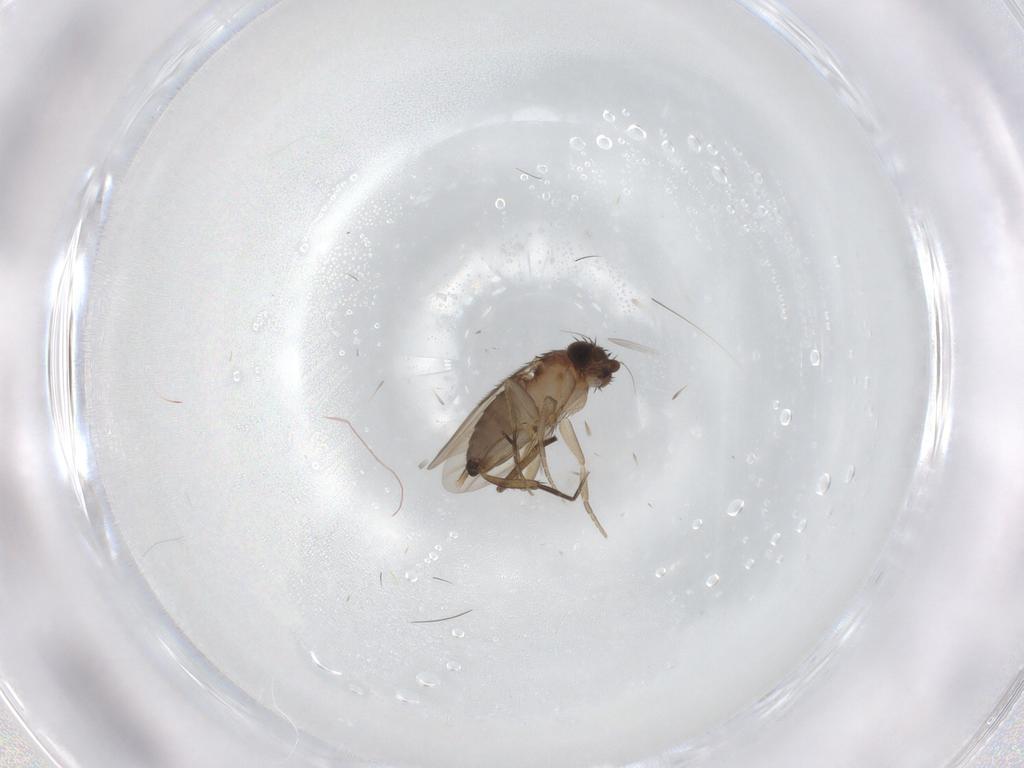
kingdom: Animalia
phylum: Arthropoda
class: Insecta
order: Diptera
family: Phoridae
